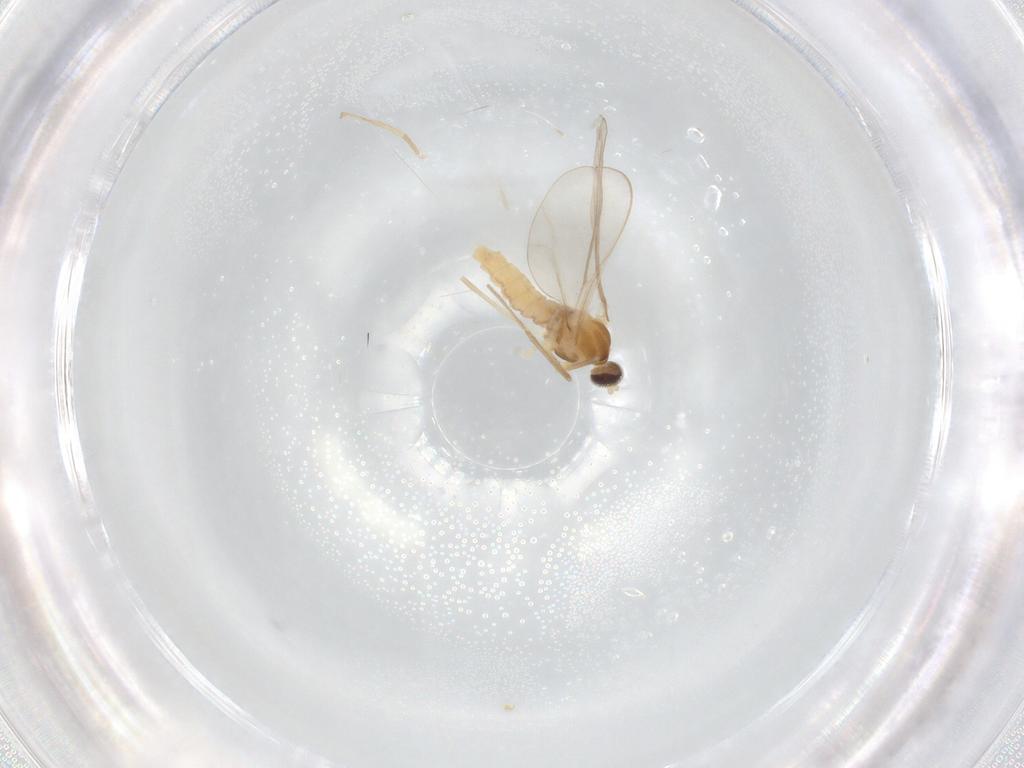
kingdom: Animalia
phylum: Arthropoda
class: Insecta
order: Diptera
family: Cecidomyiidae
